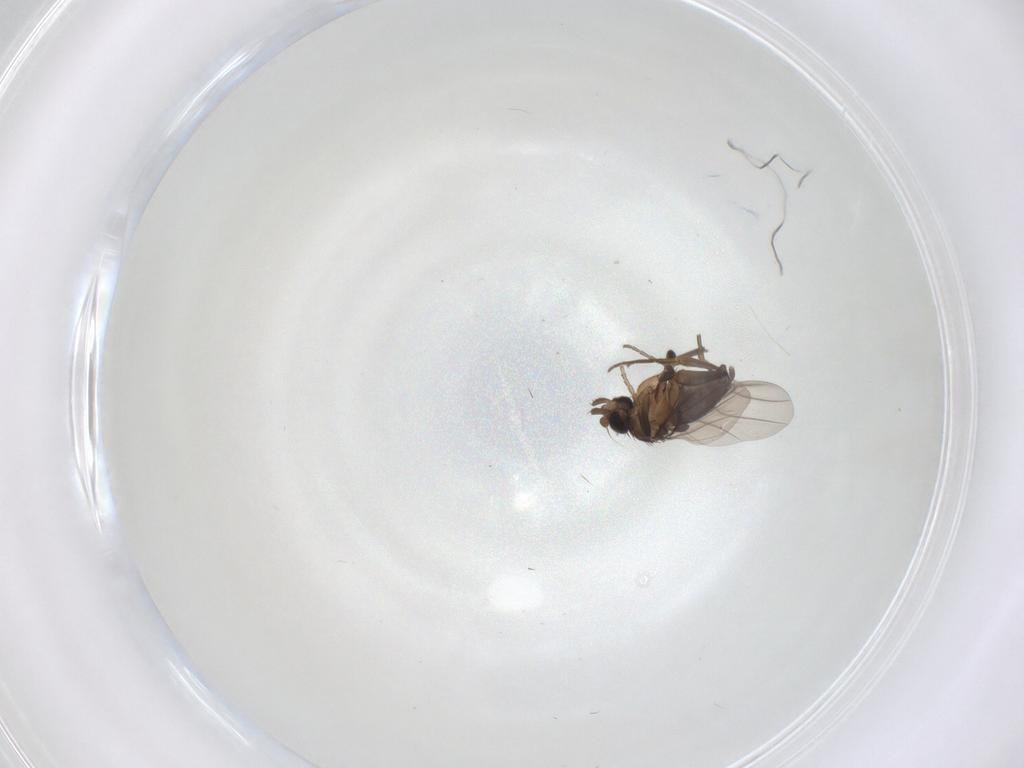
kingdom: Animalia
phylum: Arthropoda
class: Insecta
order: Diptera
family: Phoridae
